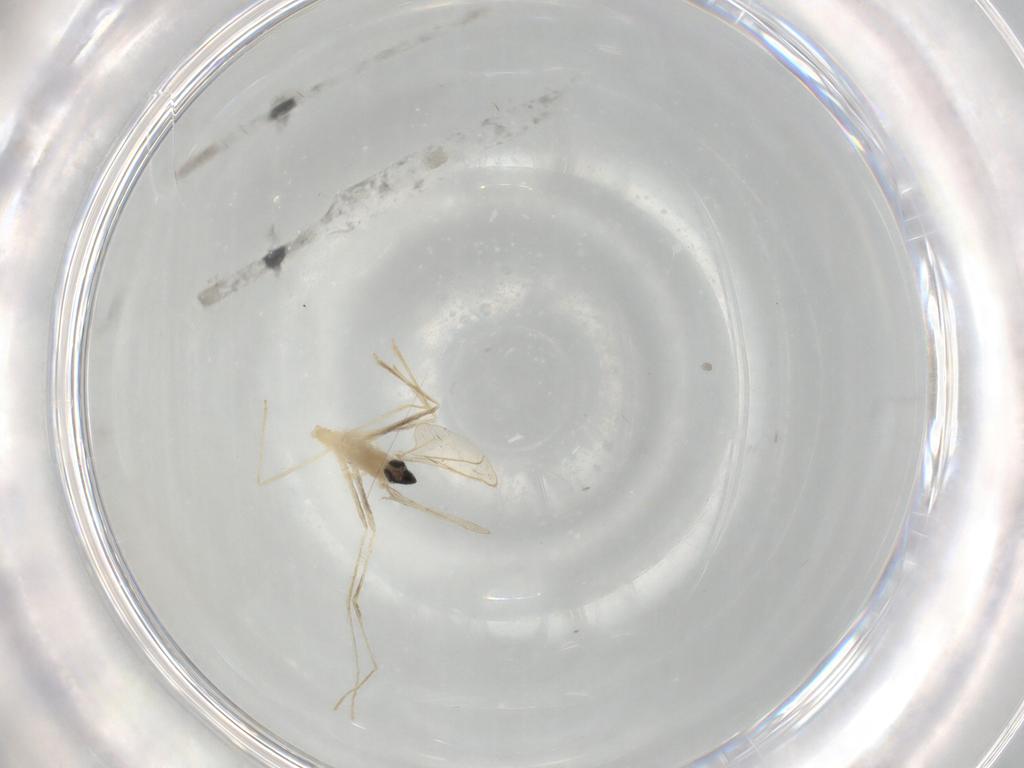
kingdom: Animalia
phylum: Arthropoda
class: Insecta
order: Diptera
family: Cecidomyiidae
